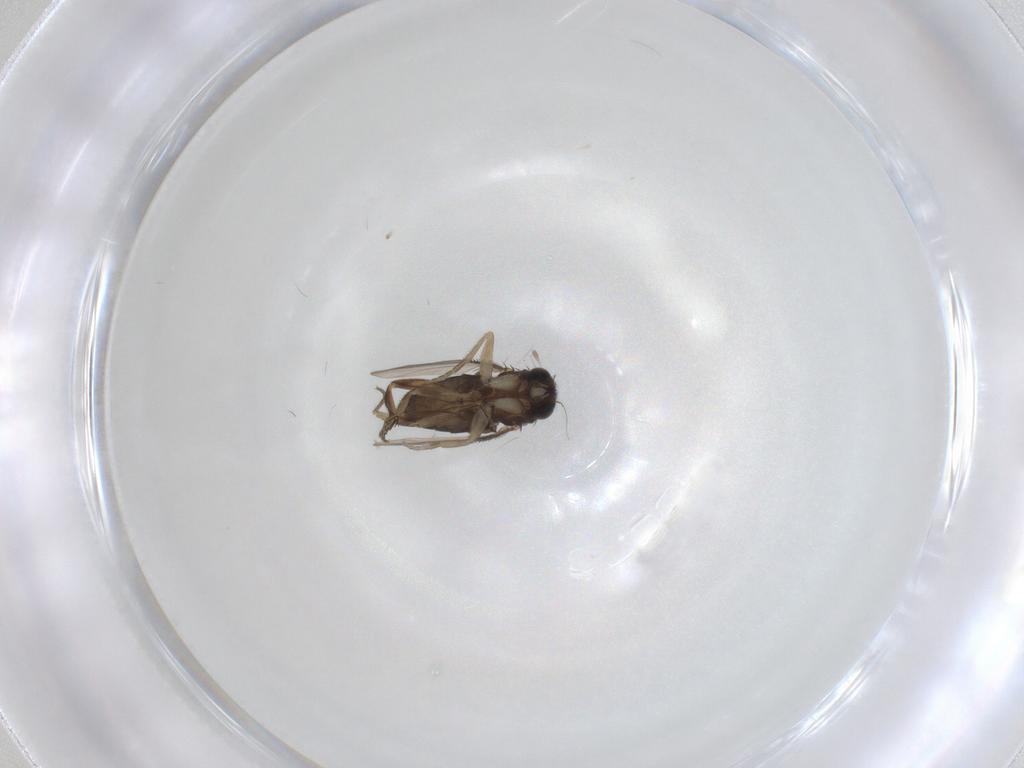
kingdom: Animalia
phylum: Arthropoda
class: Insecta
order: Diptera
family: Phoridae
